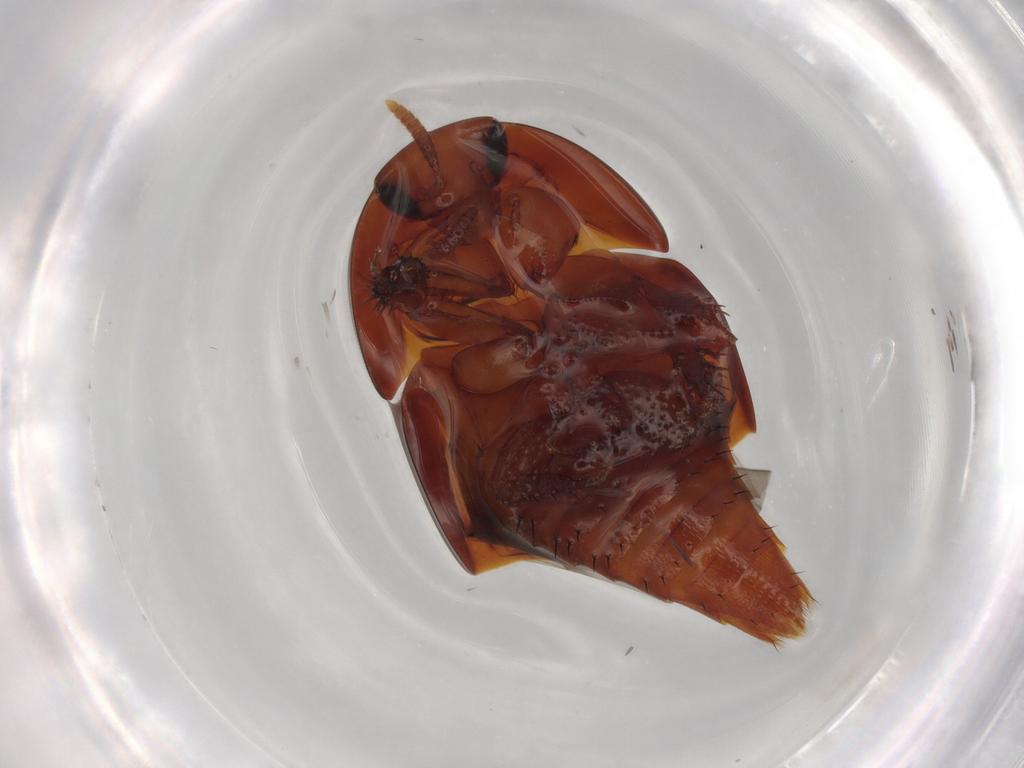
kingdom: Animalia
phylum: Arthropoda
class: Insecta
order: Coleoptera
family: Staphylinidae
